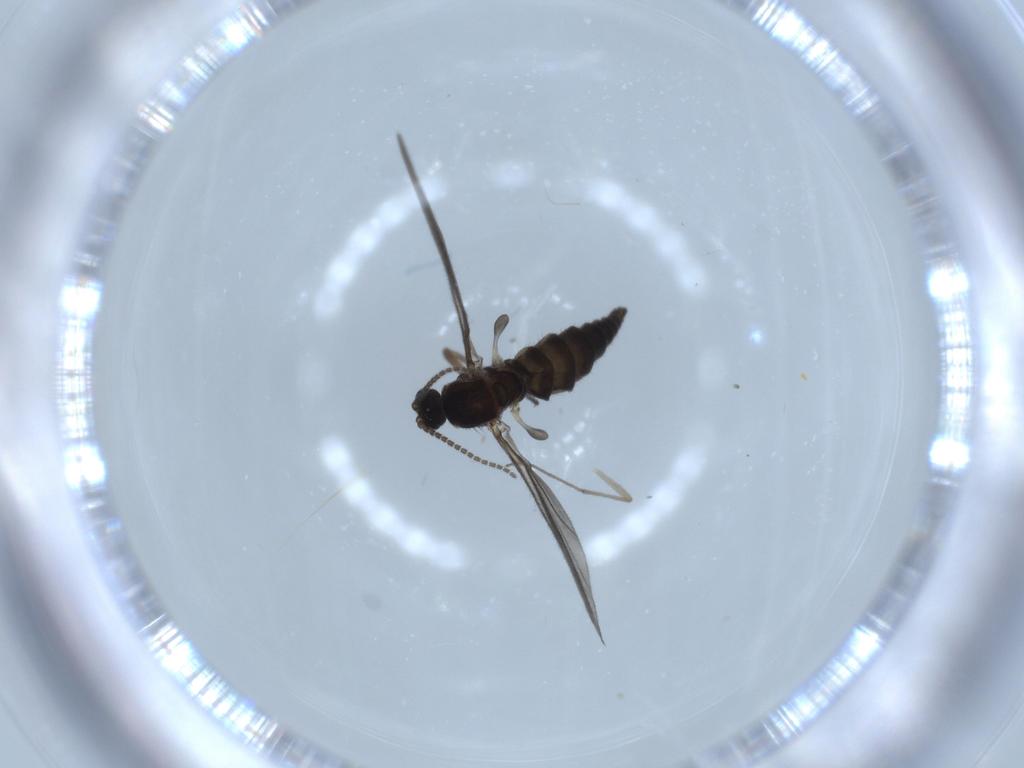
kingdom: Animalia
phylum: Arthropoda
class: Insecta
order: Diptera
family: Sciaridae
